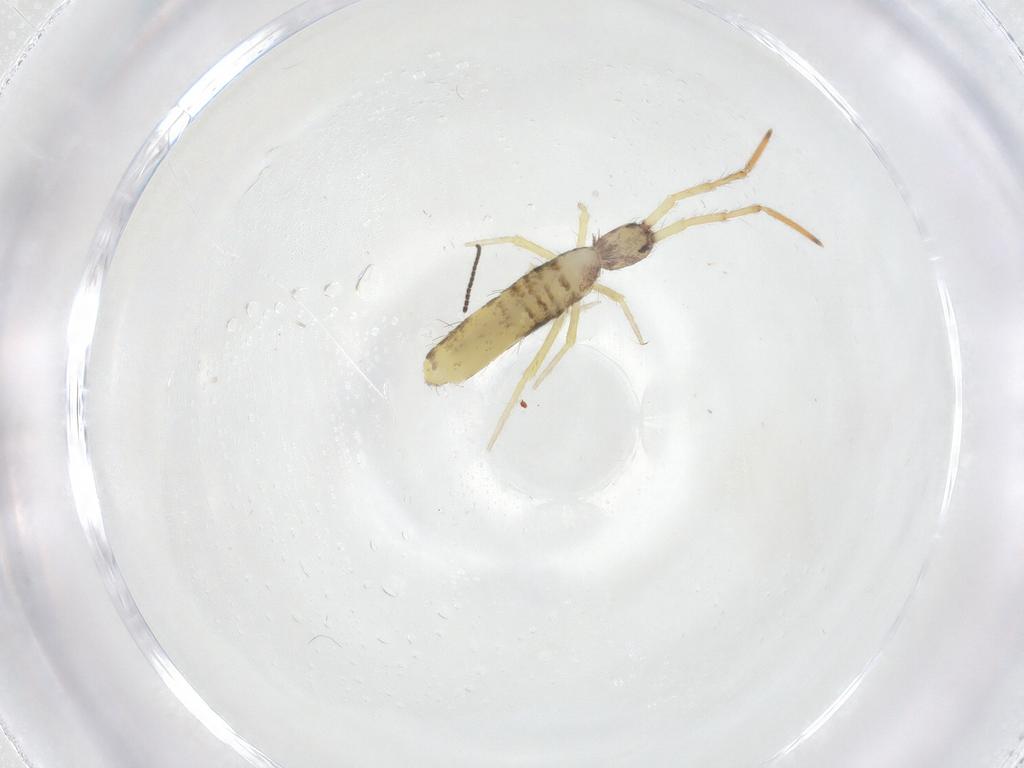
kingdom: Animalia
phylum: Arthropoda
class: Collembola
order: Entomobryomorpha
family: Entomobryidae
